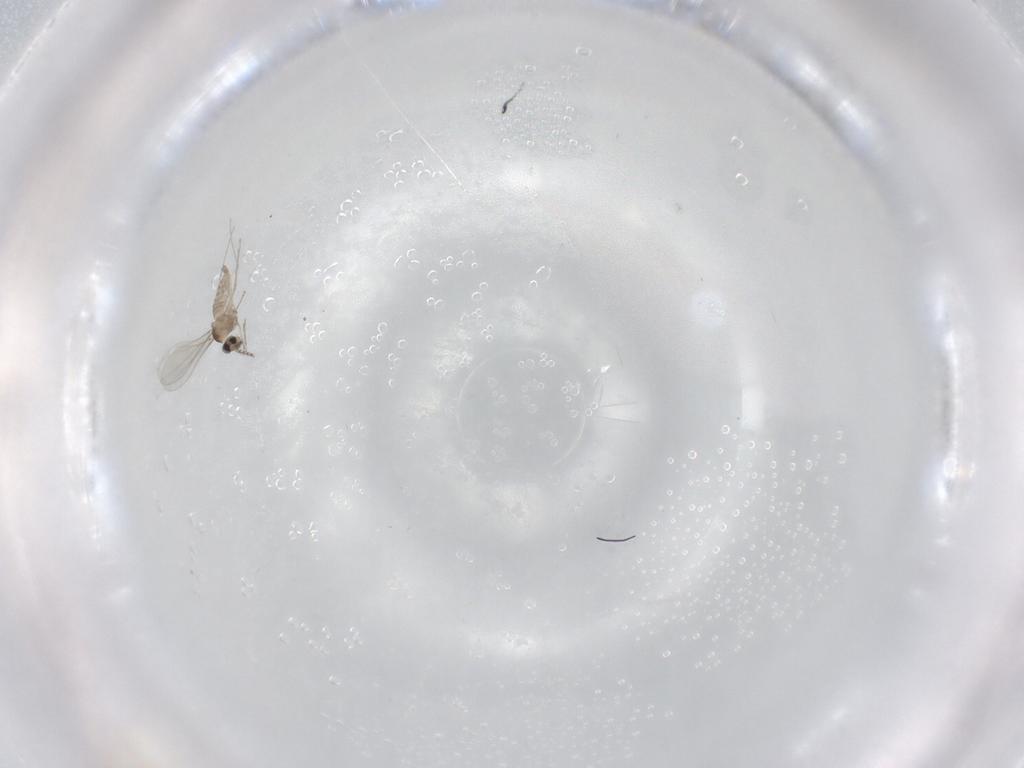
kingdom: Animalia
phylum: Arthropoda
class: Insecta
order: Diptera
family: Cecidomyiidae
